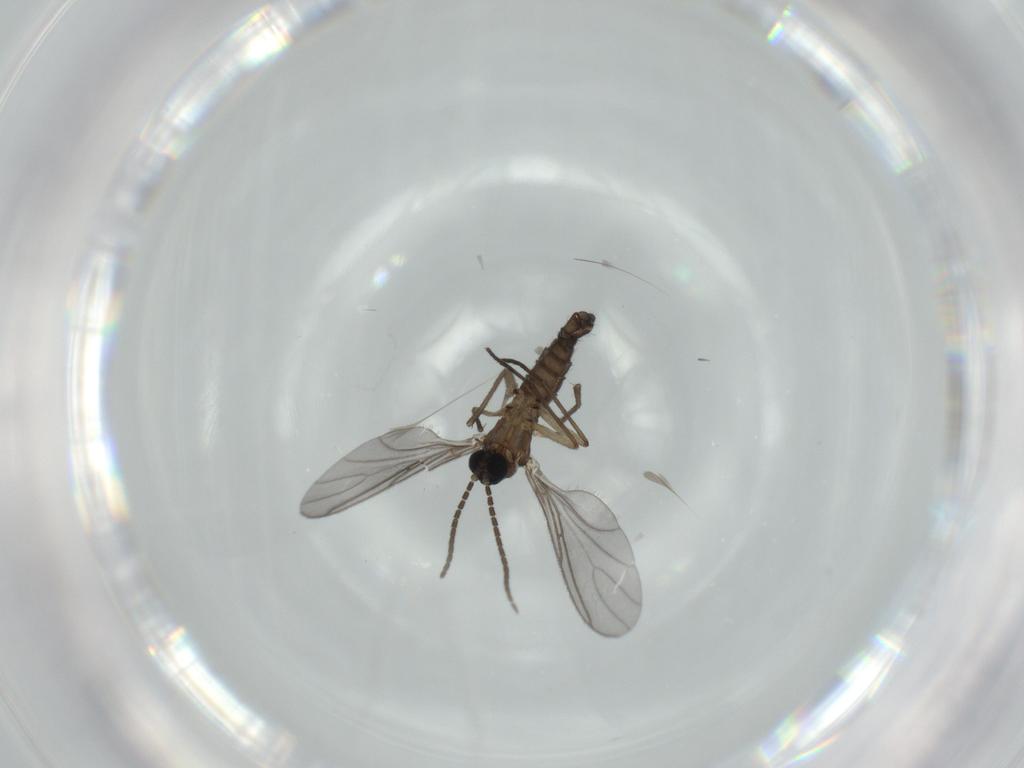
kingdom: Animalia
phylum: Arthropoda
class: Insecta
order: Diptera
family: Sciaridae
